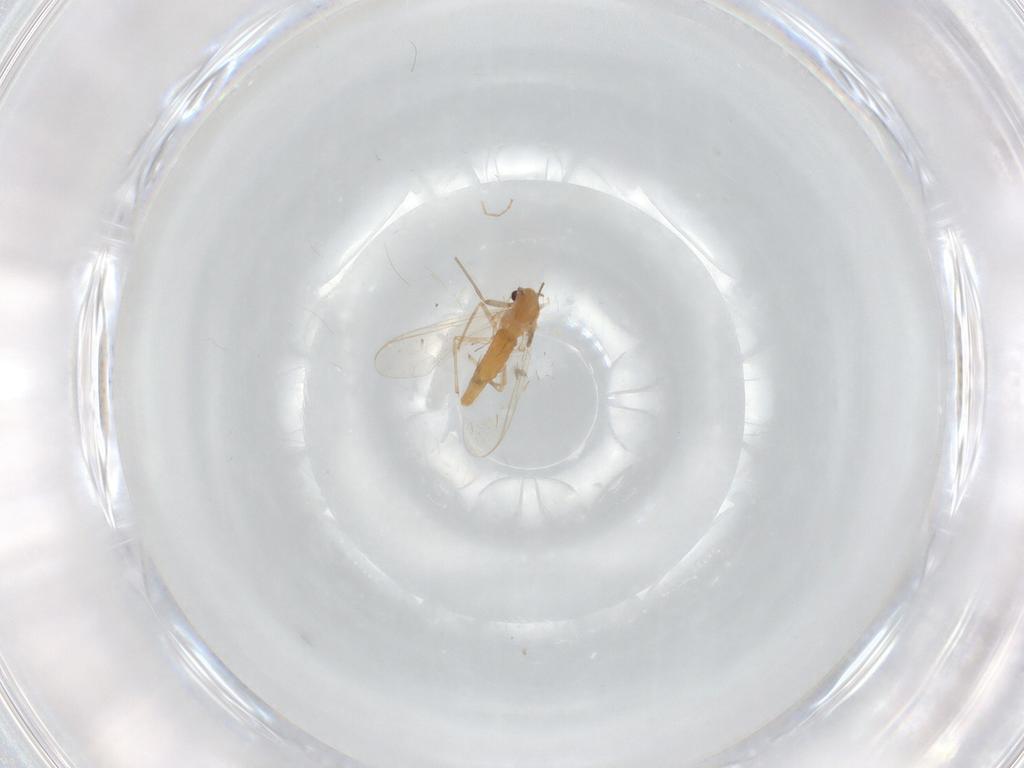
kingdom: Animalia
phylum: Arthropoda
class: Insecta
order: Diptera
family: Chironomidae
